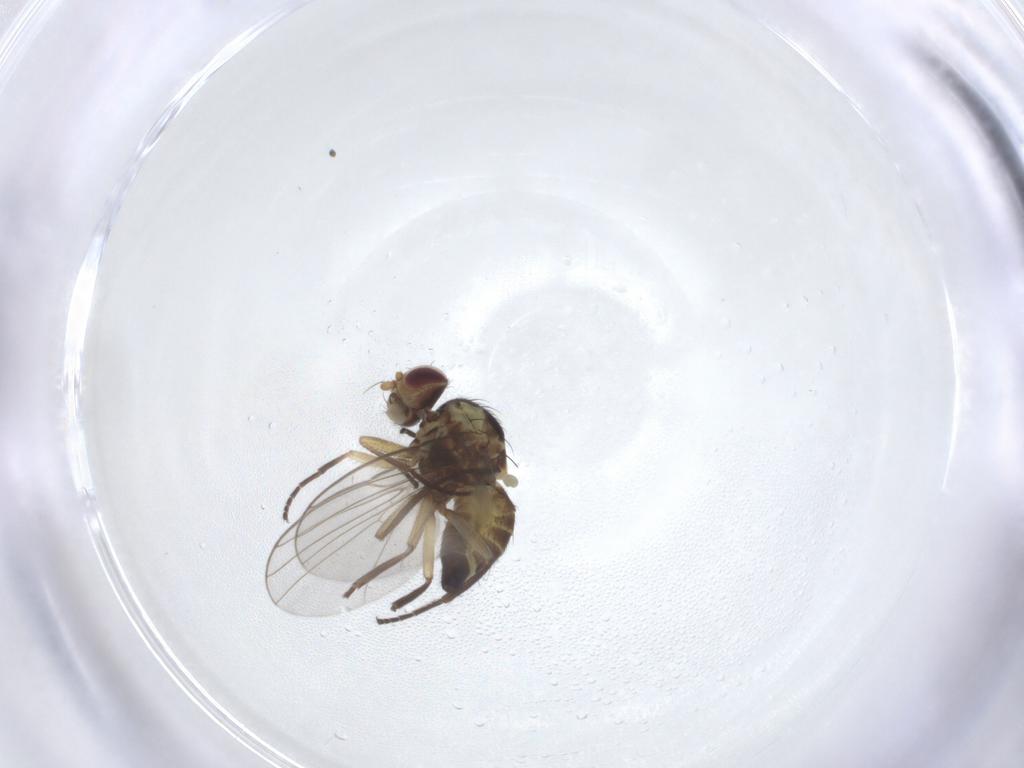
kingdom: Animalia
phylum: Arthropoda
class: Insecta
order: Diptera
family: Agromyzidae
